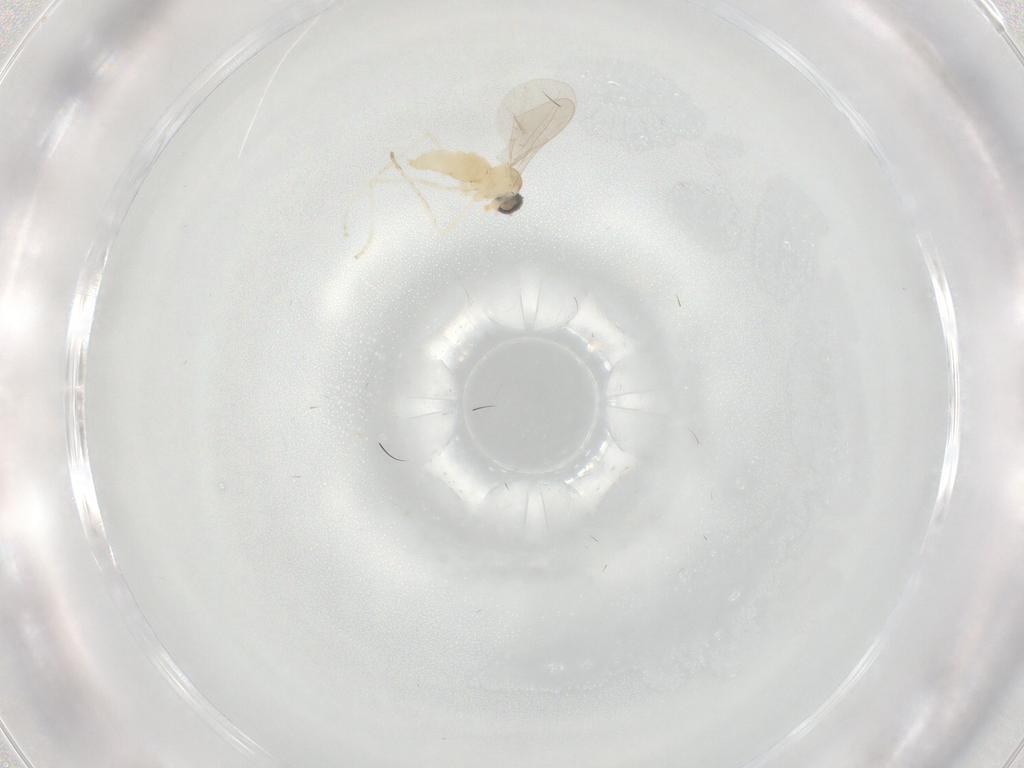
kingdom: Animalia
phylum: Arthropoda
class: Insecta
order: Diptera
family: Cecidomyiidae
